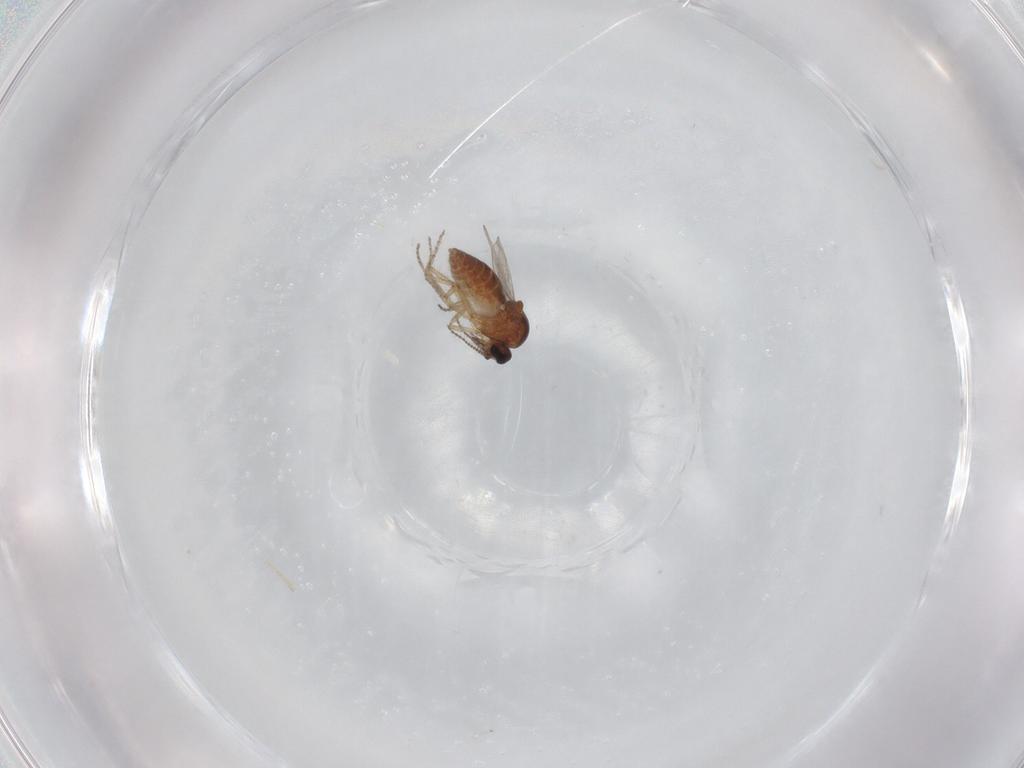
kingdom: Animalia
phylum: Arthropoda
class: Insecta
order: Diptera
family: Ceratopogonidae
